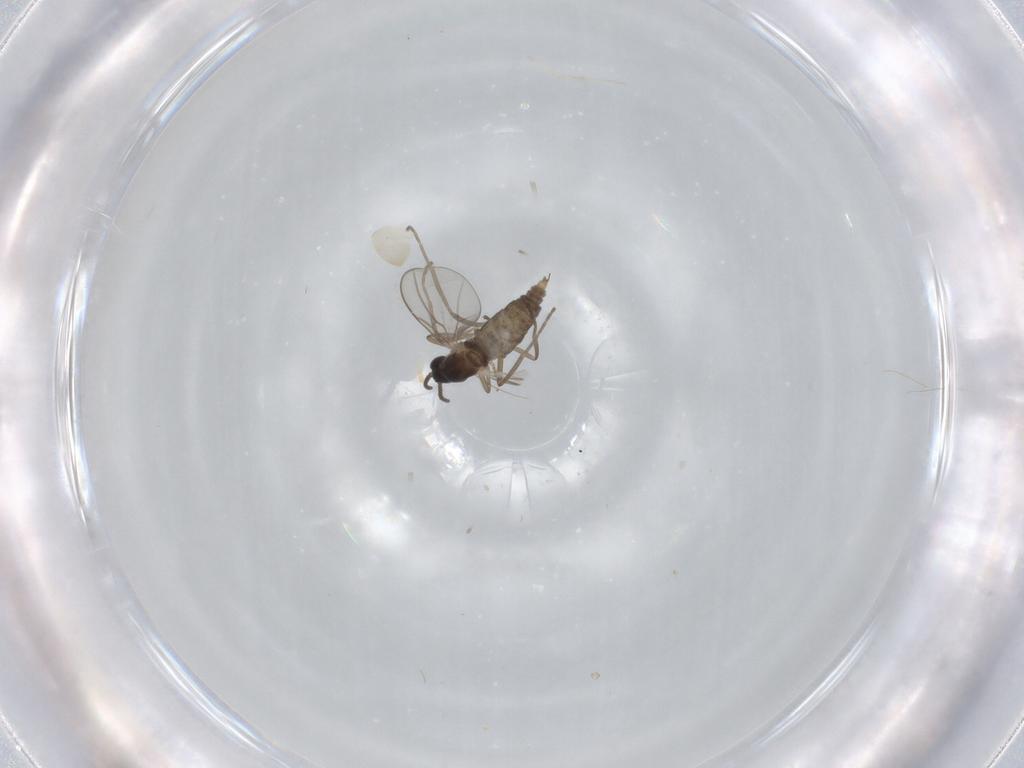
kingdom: Animalia
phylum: Arthropoda
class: Insecta
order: Diptera
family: Cecidomyiidae
